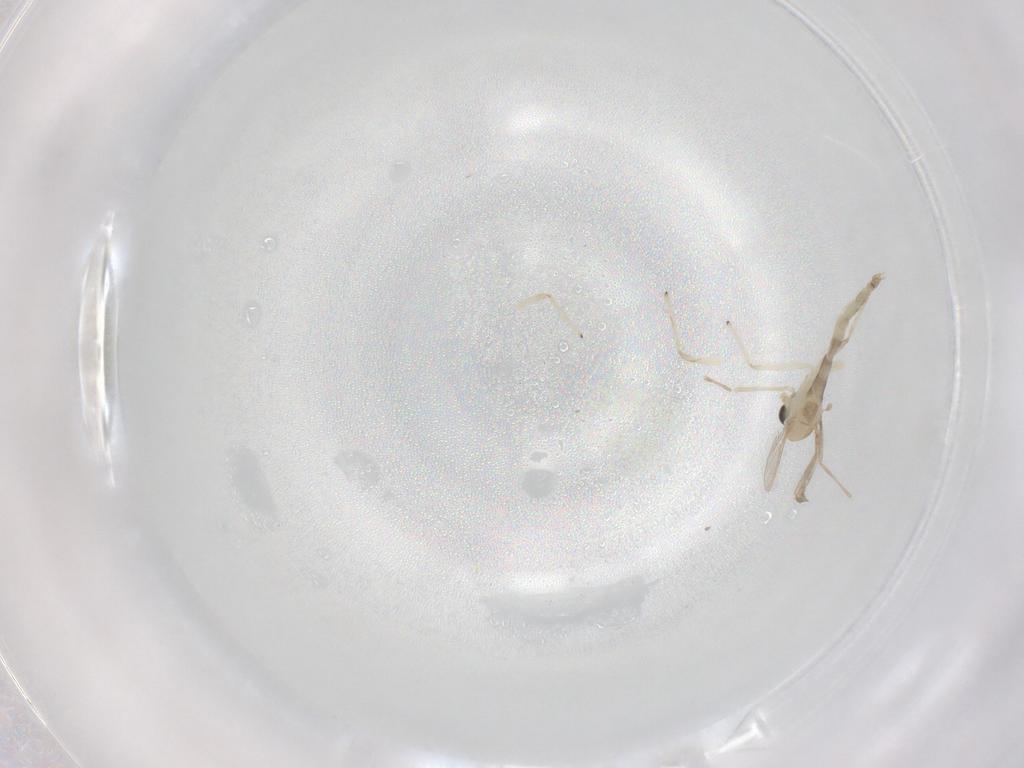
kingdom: Animalia
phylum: Arthropoda
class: Insecta
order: Diptera
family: Chironomidae
